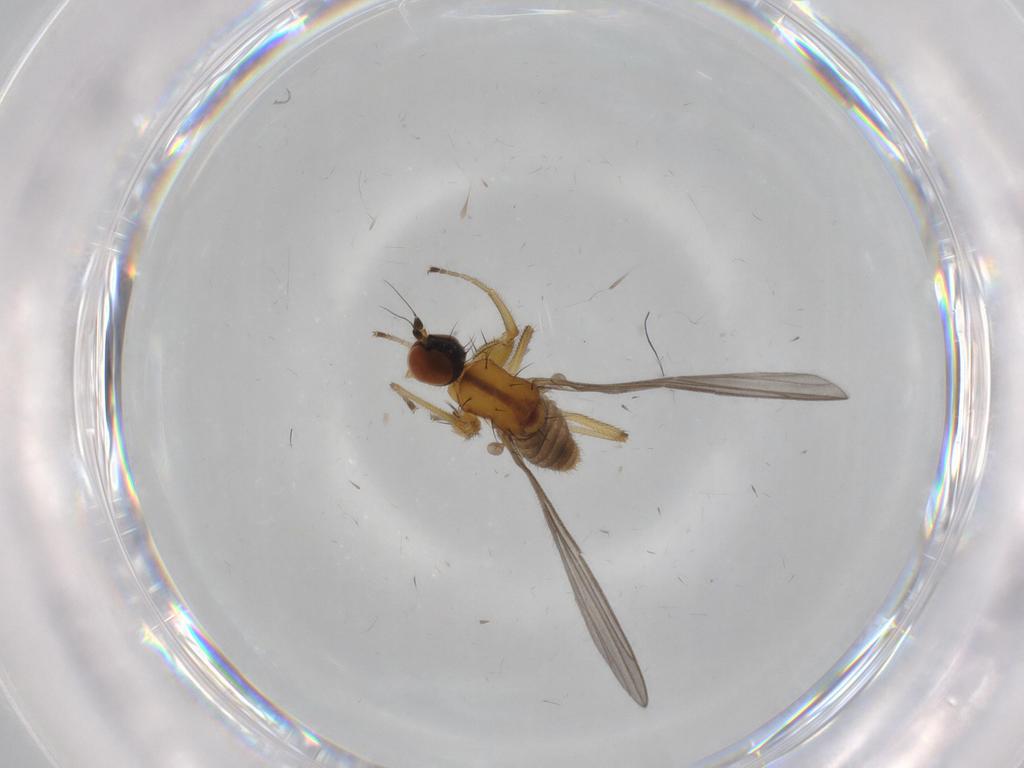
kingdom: Animalia
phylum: Arthropoda
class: Insecta
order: Diptera
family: Empididae
